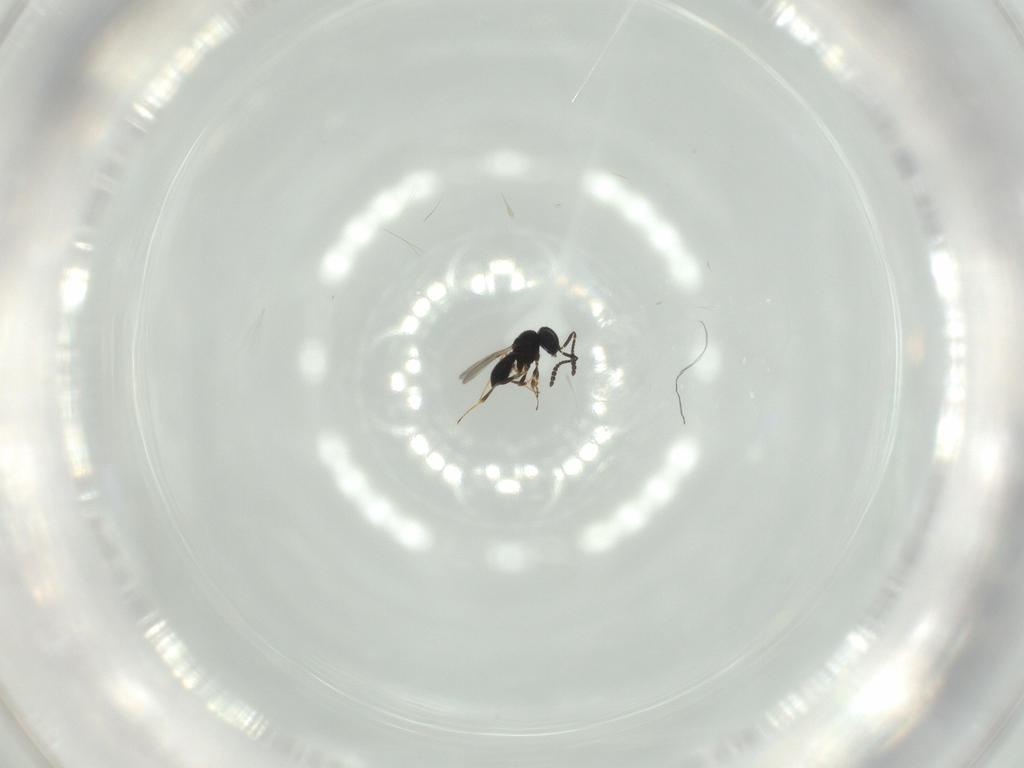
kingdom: Animalia
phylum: Arthropoda
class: Insecta
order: Hymenoptera
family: Scelionidae
